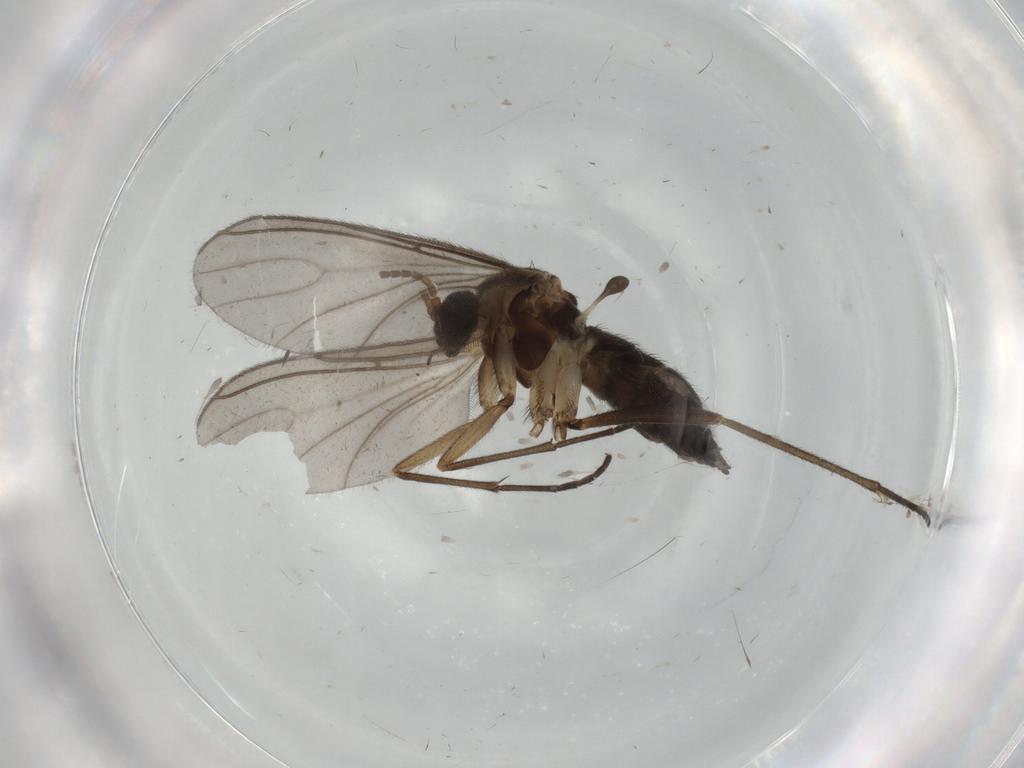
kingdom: Animalia
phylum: Arthropoda
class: Insecta
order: Diptera
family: Sciaridae
